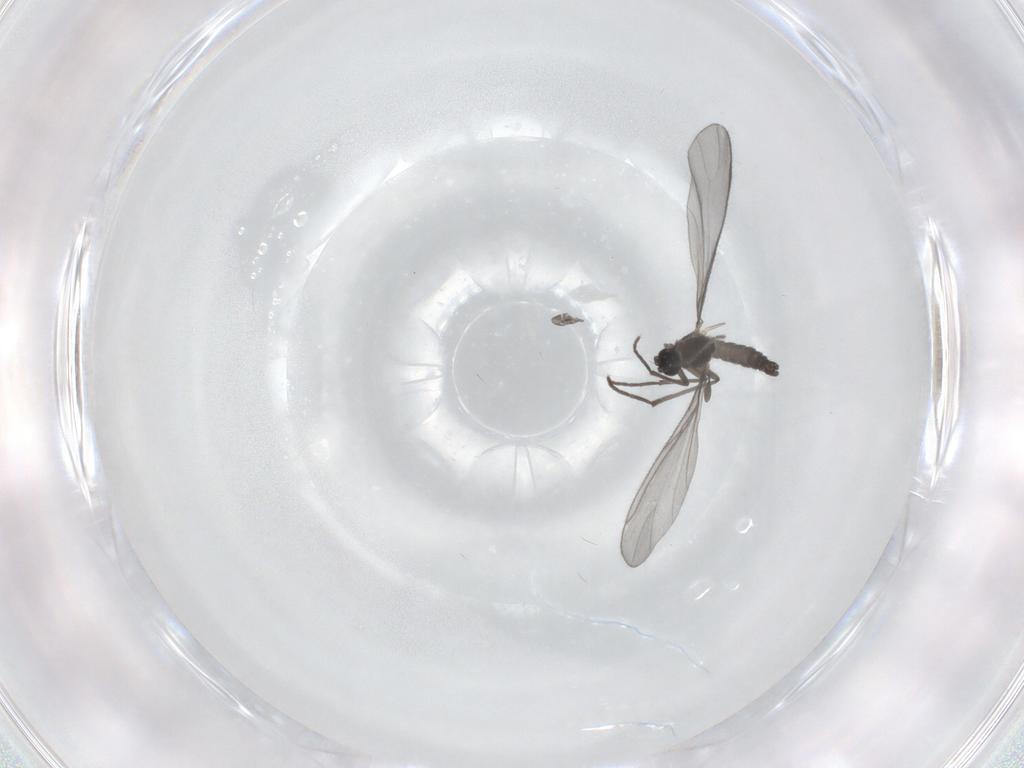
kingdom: Animalia
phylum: Arthropoda
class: Insecta
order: Diptera
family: Sciaridae
